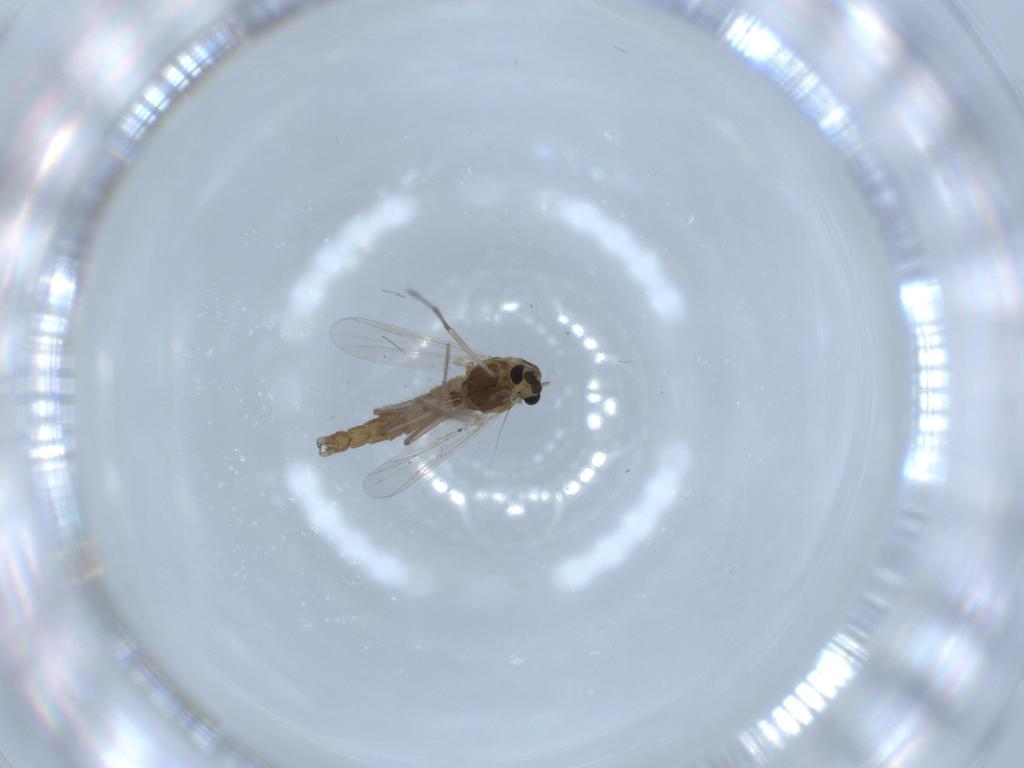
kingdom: Animalia
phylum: Arthropoda
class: Insecta
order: Diptera
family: Chironomidae
